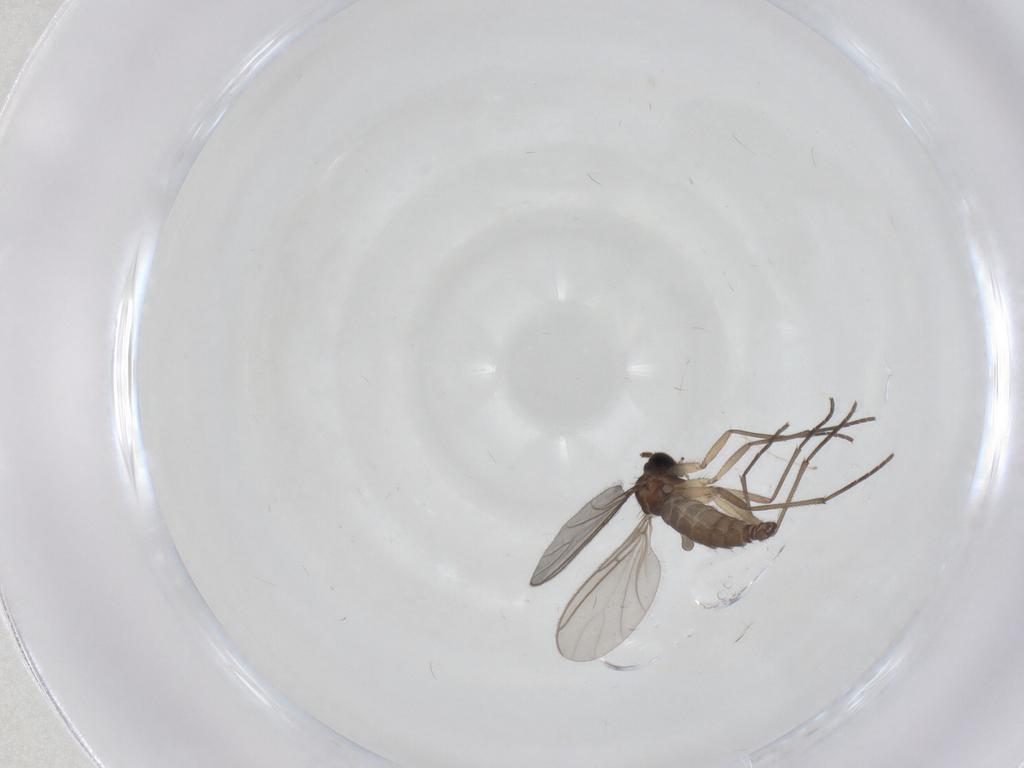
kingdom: Animalia
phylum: Arthropoda
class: Insecta
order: Diptera
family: Sciaridae
